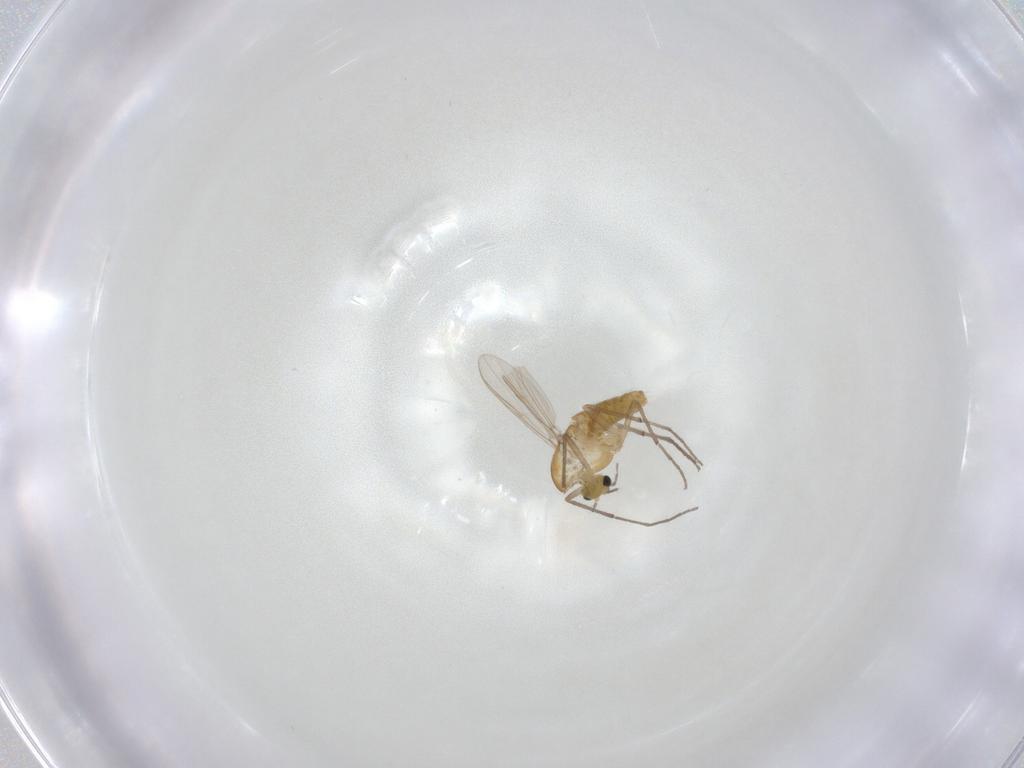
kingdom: Animalia
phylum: Arthropoda
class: Insecta
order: Diptera
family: Chironomidae
